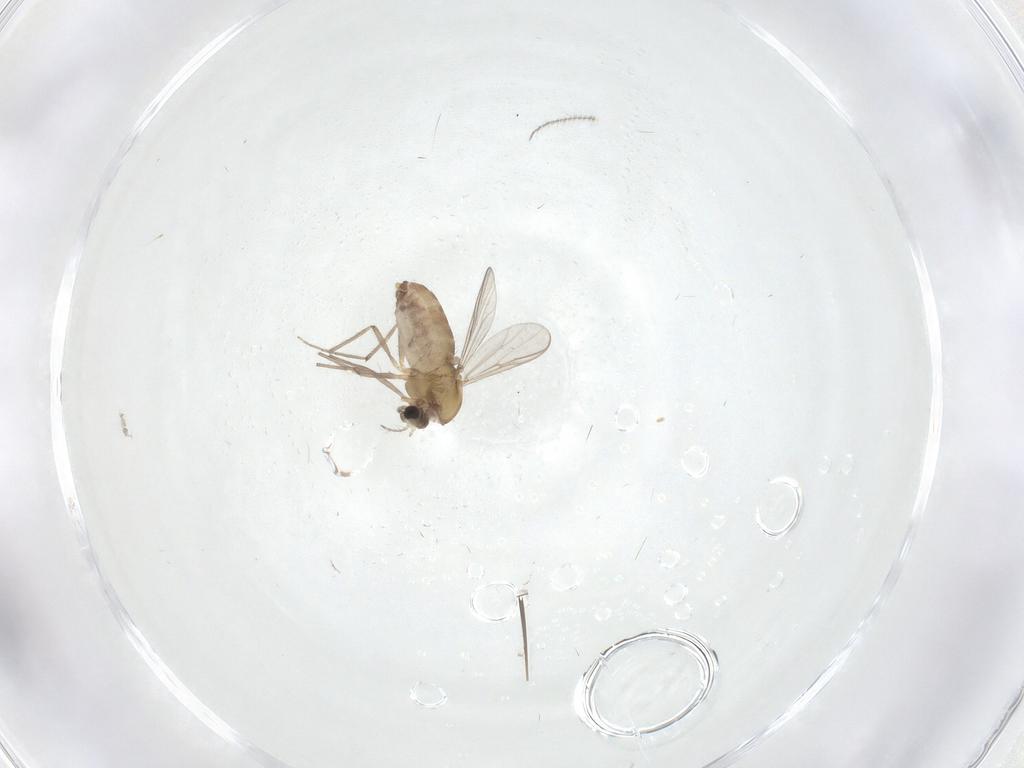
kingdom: Animalia
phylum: Arthropoda
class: Insecta
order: Diptera
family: Chironomidae
